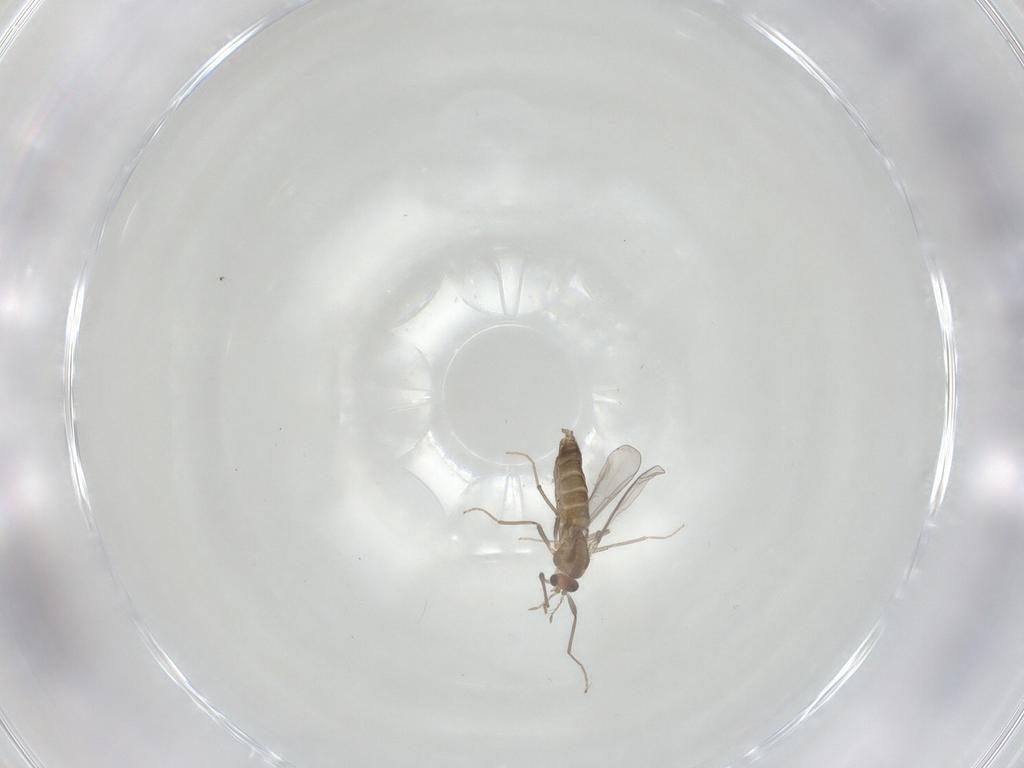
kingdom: Animalia
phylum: Arthropoda
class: Insecta
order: Diptera
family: Chironomidae
